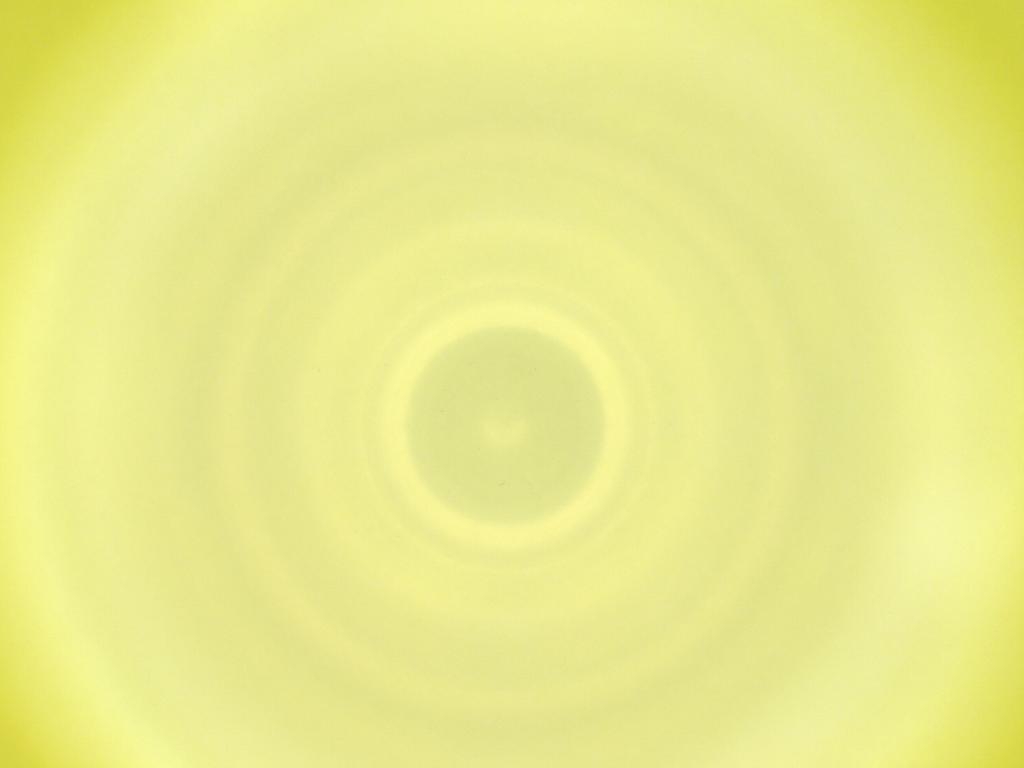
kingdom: Animalia
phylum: Arthropoda
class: Insecta
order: Diptera
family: Cecidomyiidae
